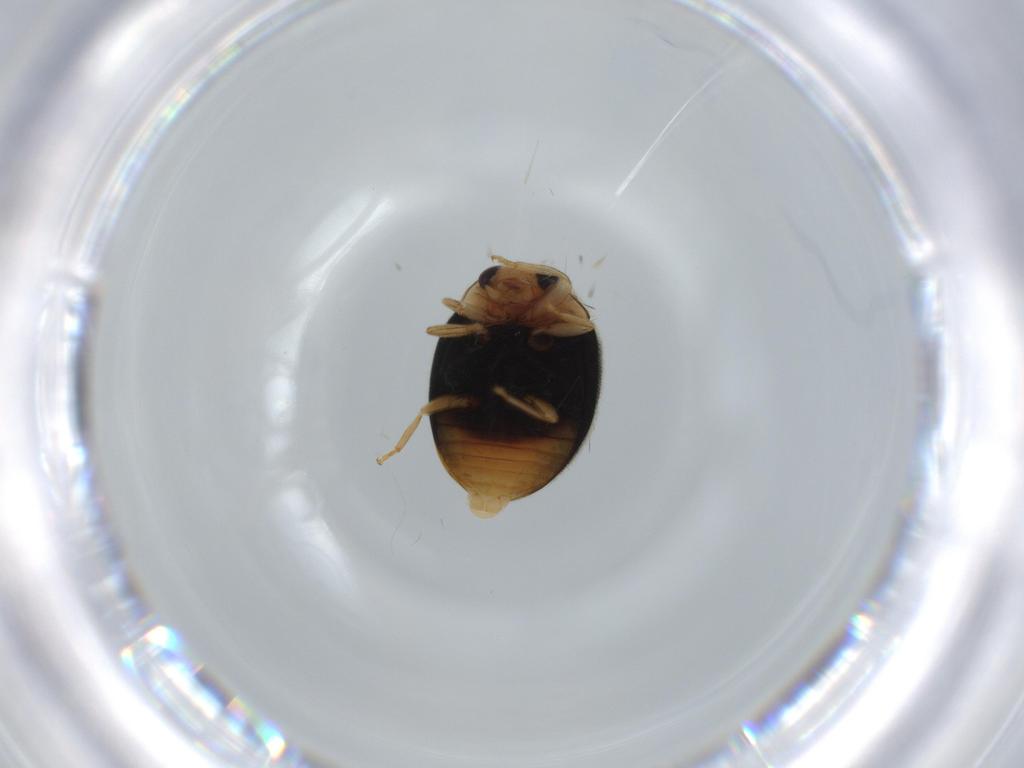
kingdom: Animalia
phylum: Arthropoda
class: Insecta
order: Coleoptera
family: Coccinellidae
